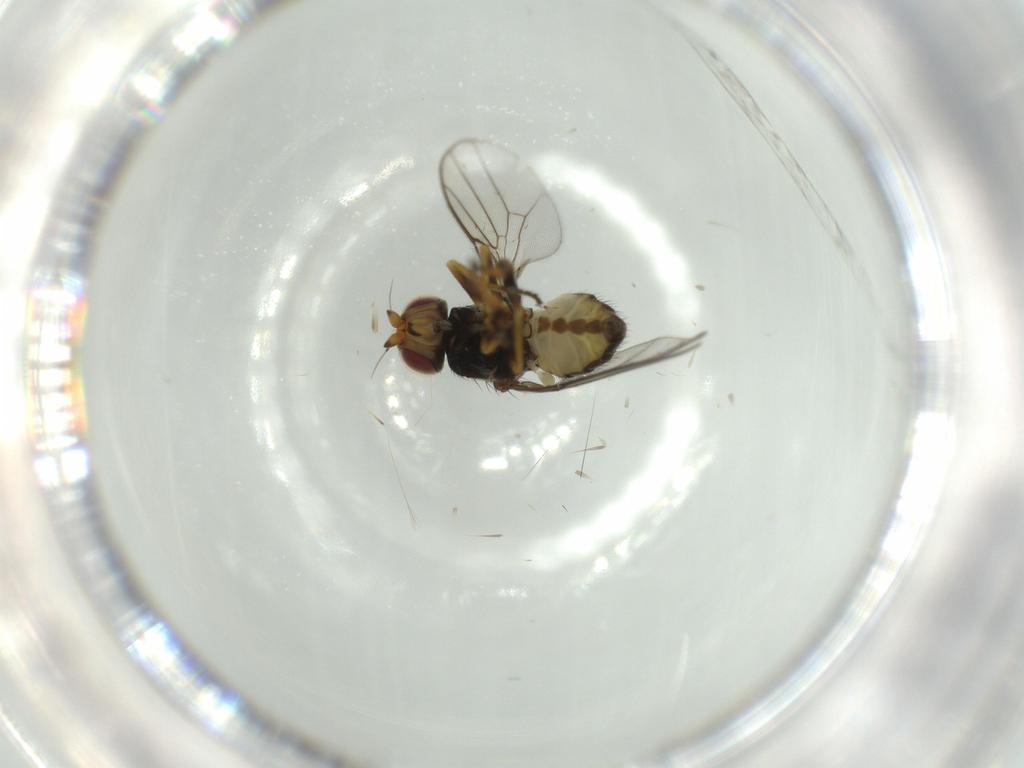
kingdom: Animalia
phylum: Arthropoda
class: Insecta
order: Diptera
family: Chloropidae
